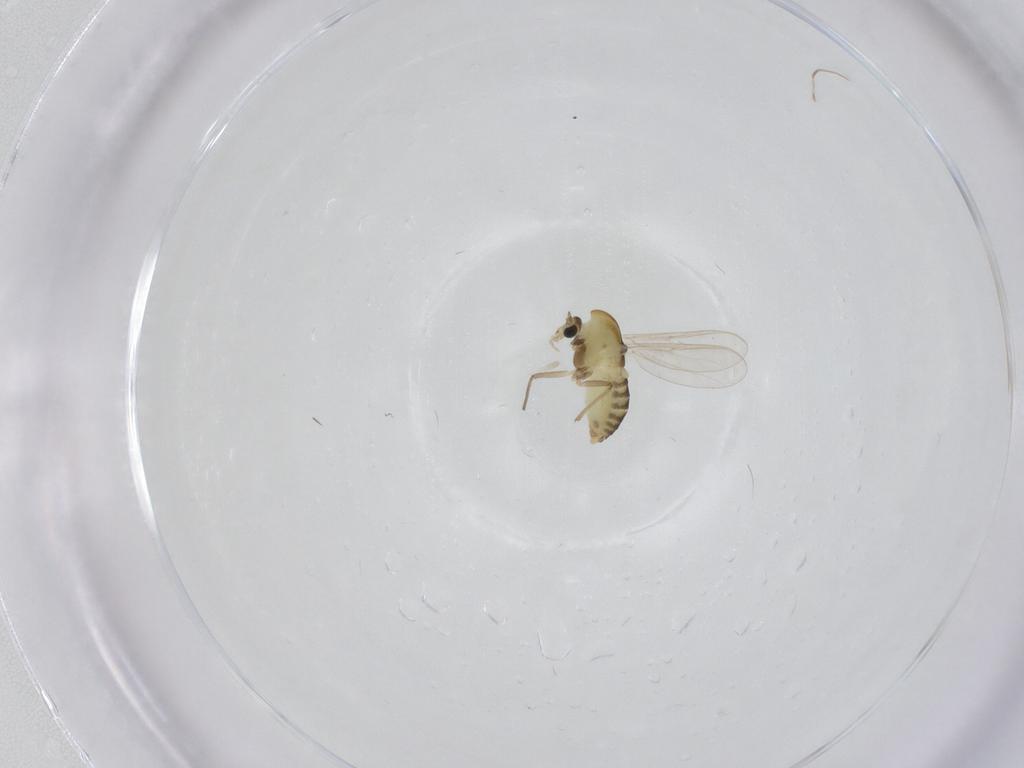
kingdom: Animalia
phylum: Arthropoda
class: Insecta
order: Diptera
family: Chironomidae
